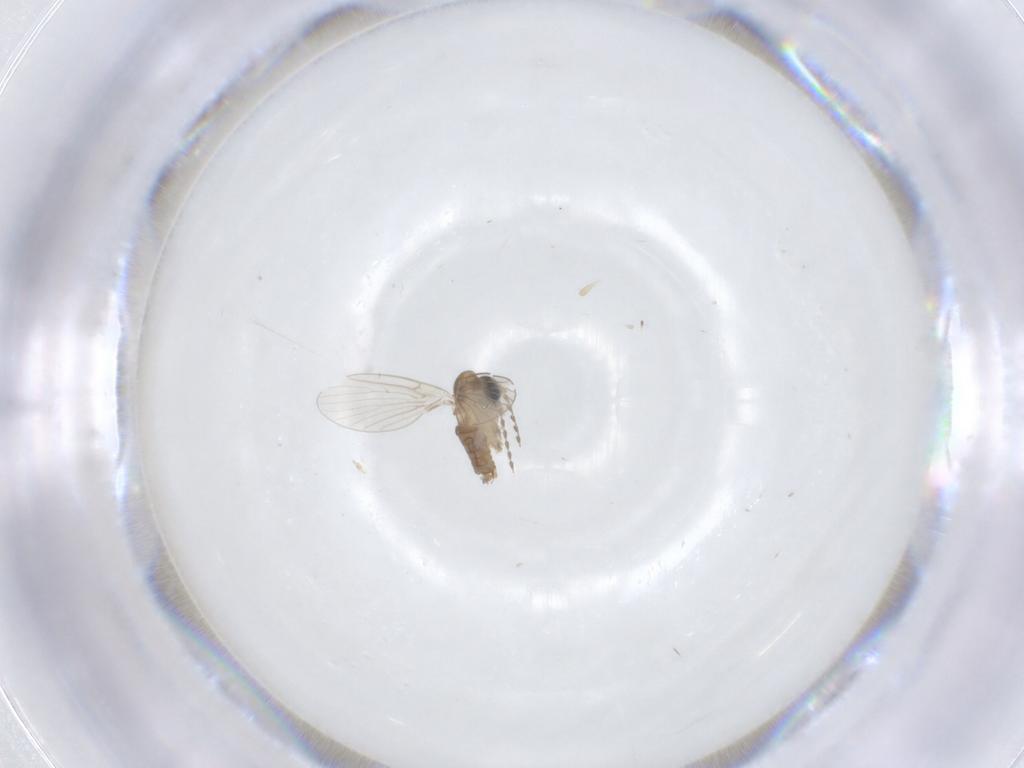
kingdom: Animalia
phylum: Arthropoda
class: Insecta
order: Diptera
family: Psychodidae
